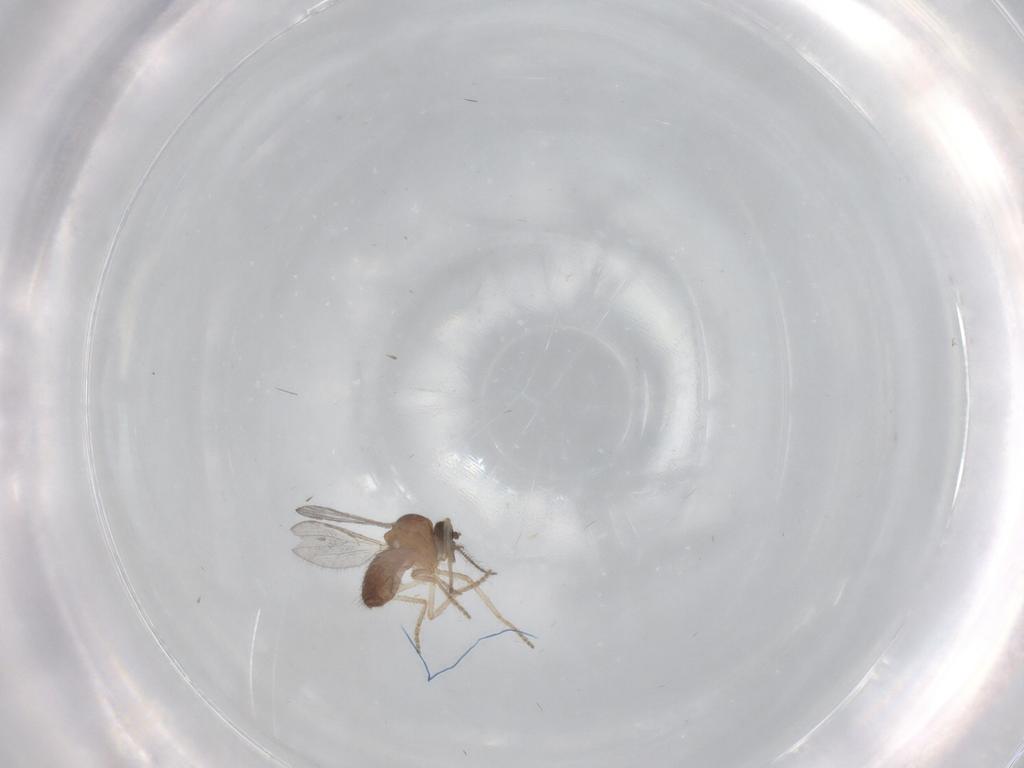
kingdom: Animalia
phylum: Arthropoda
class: Insecta
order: Diptera
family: Ceratopogonidae
